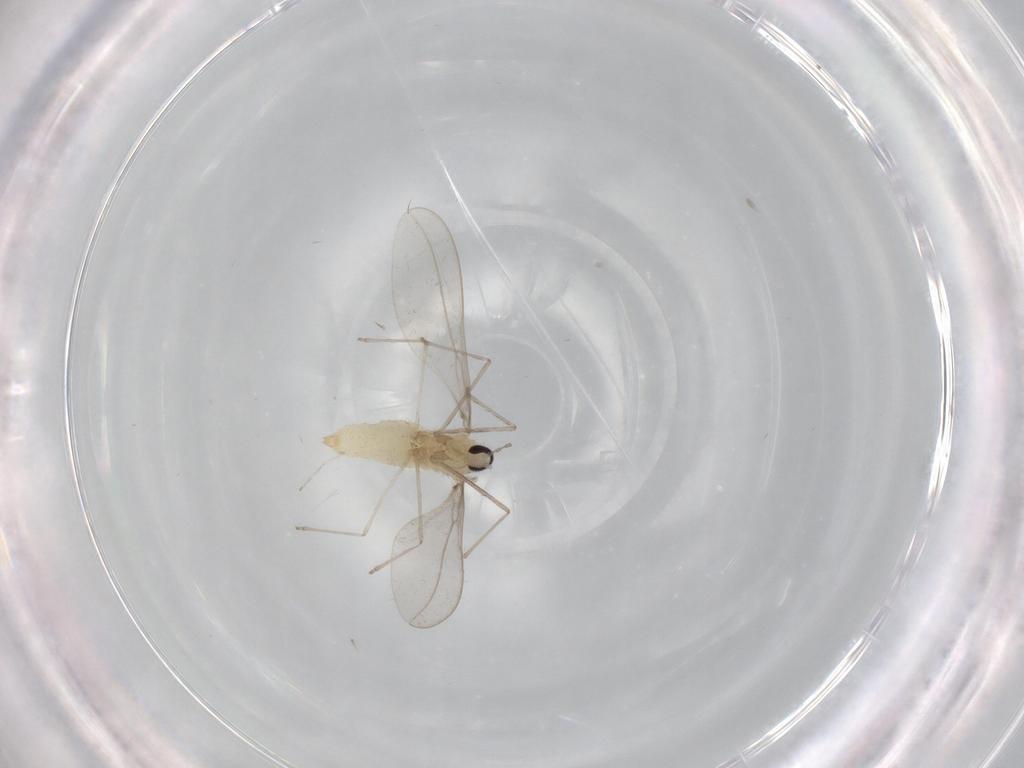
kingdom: Animalia
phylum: Arthropoda
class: Insecta
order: Diptera
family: Cecidomyiidae
